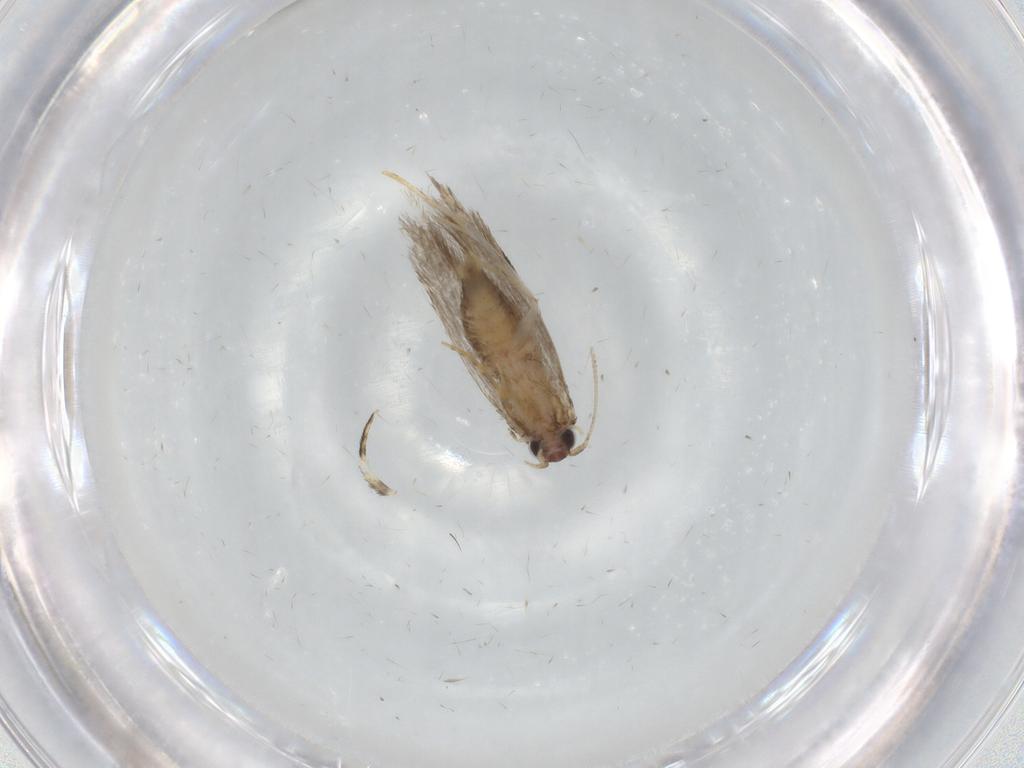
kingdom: Animalia
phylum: Arthropoda
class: Insecta
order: Lepidoptera
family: Autostichidae
